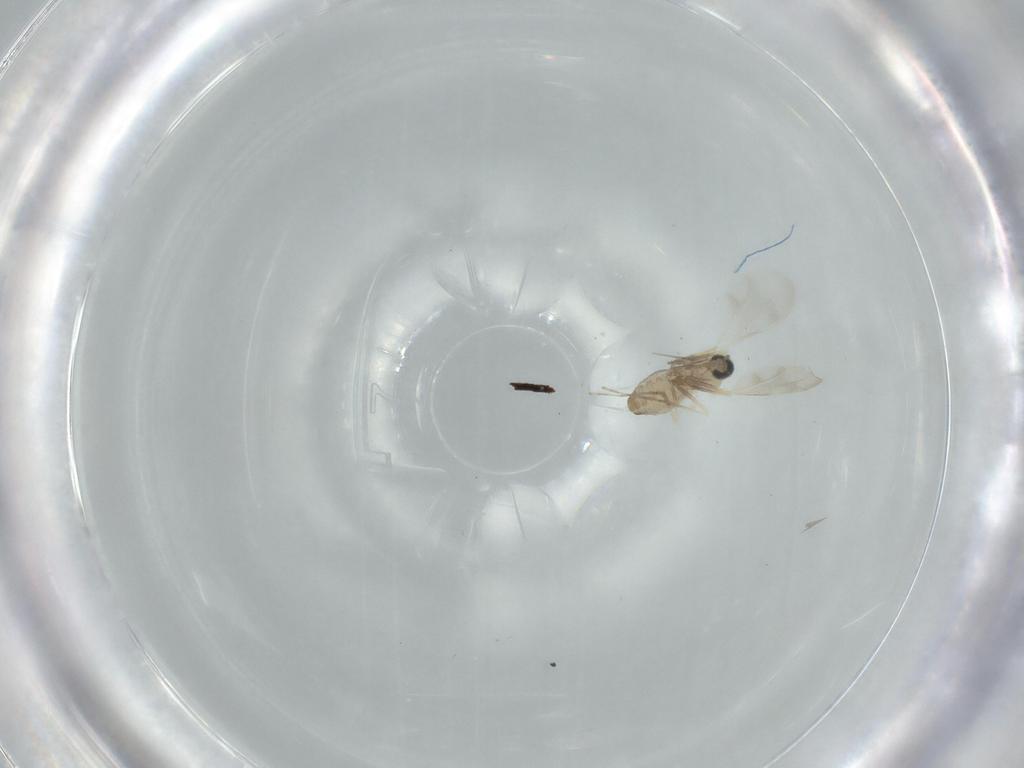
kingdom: Animalia
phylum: Arthropoda
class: Insecta
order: Diptera
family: Cecidomyiidae
